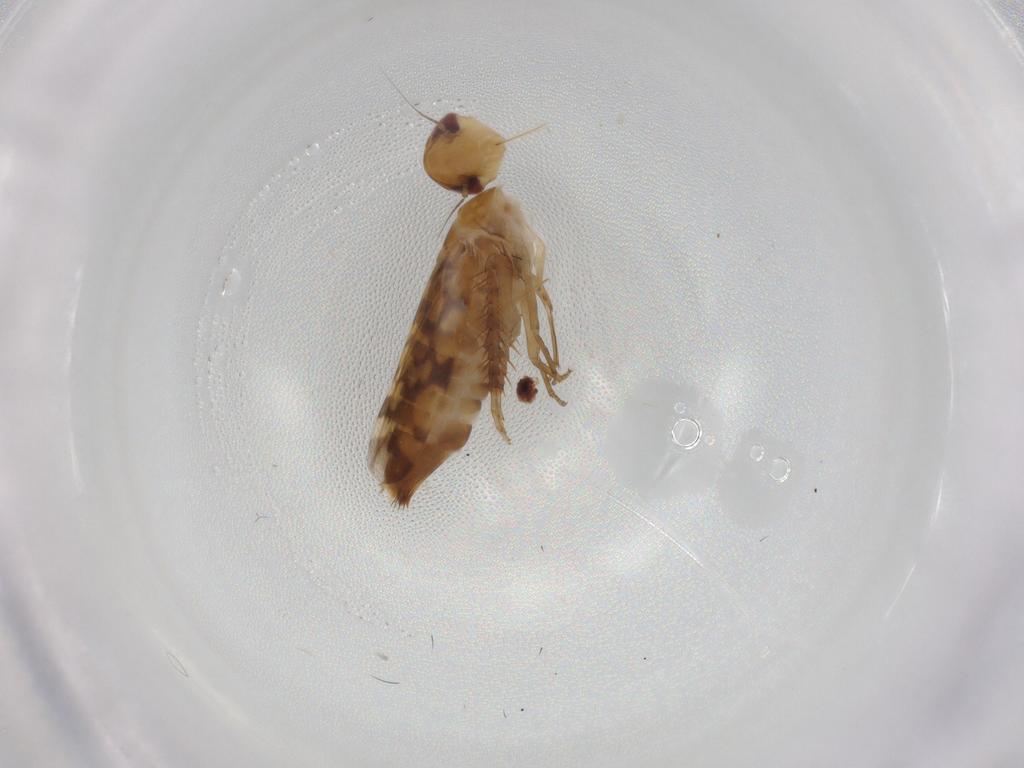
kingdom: Animalia
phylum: Arthropoda
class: Insecta
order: Hemiptera
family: Cicadellidae
